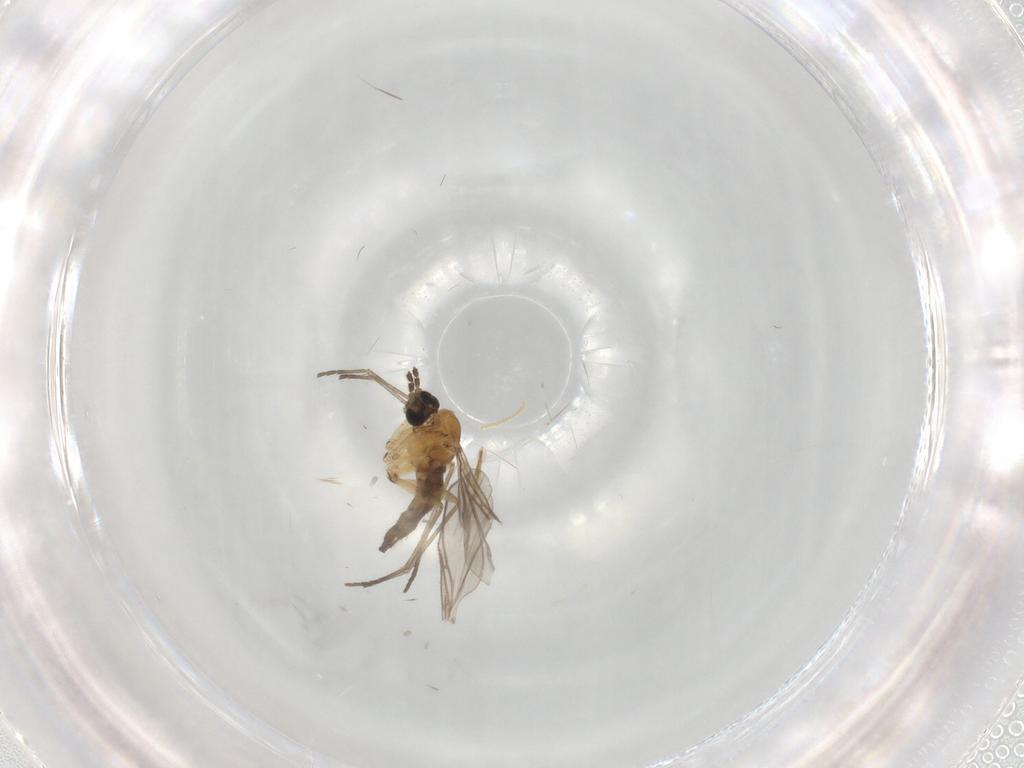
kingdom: Animalia
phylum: Arthropoda
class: Insecta
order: Diptera
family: Sciaridae
